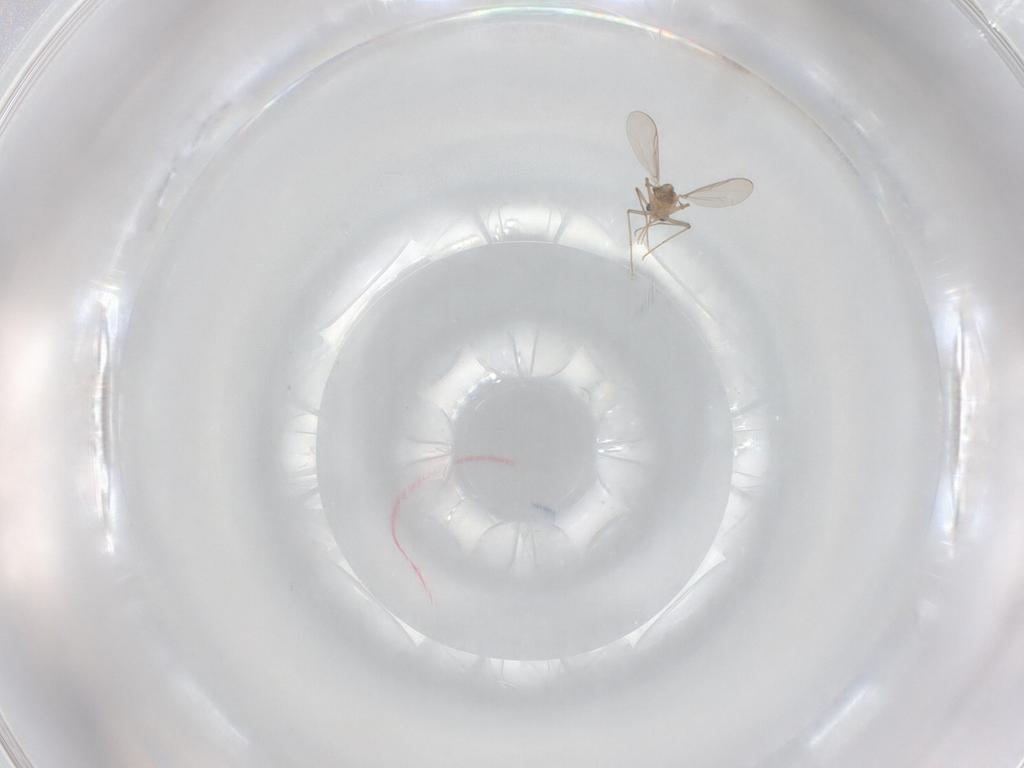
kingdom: Animalia
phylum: Arthropoda
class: Insecta
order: Diptera
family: Chironomidae
